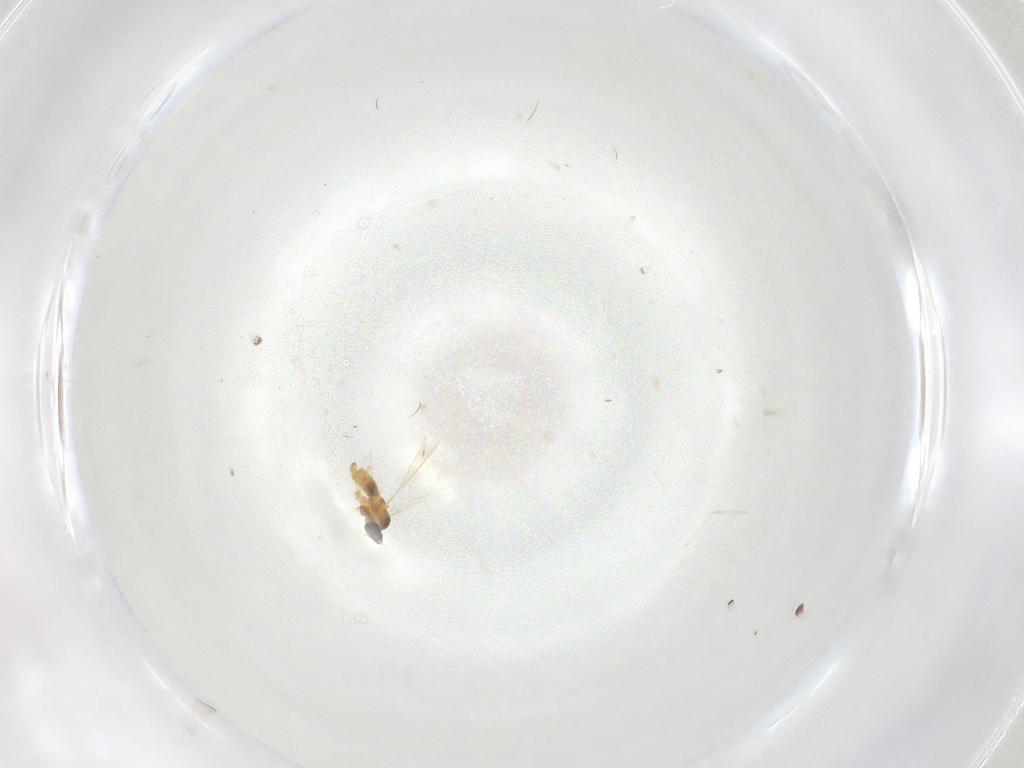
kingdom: Animalia
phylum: Arthropoda
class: Insecta
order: Diptera
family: Cecidomyiidae
